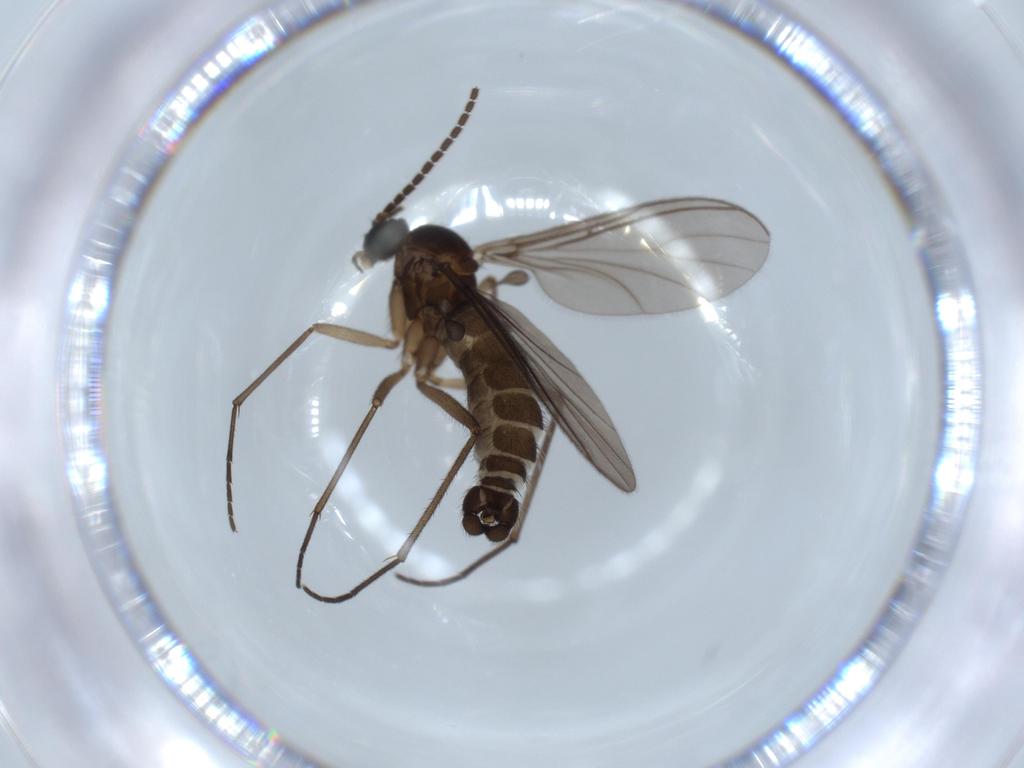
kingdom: Animalia
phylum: Arthropoda
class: Insecta
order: Diptera
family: Sciaridae
